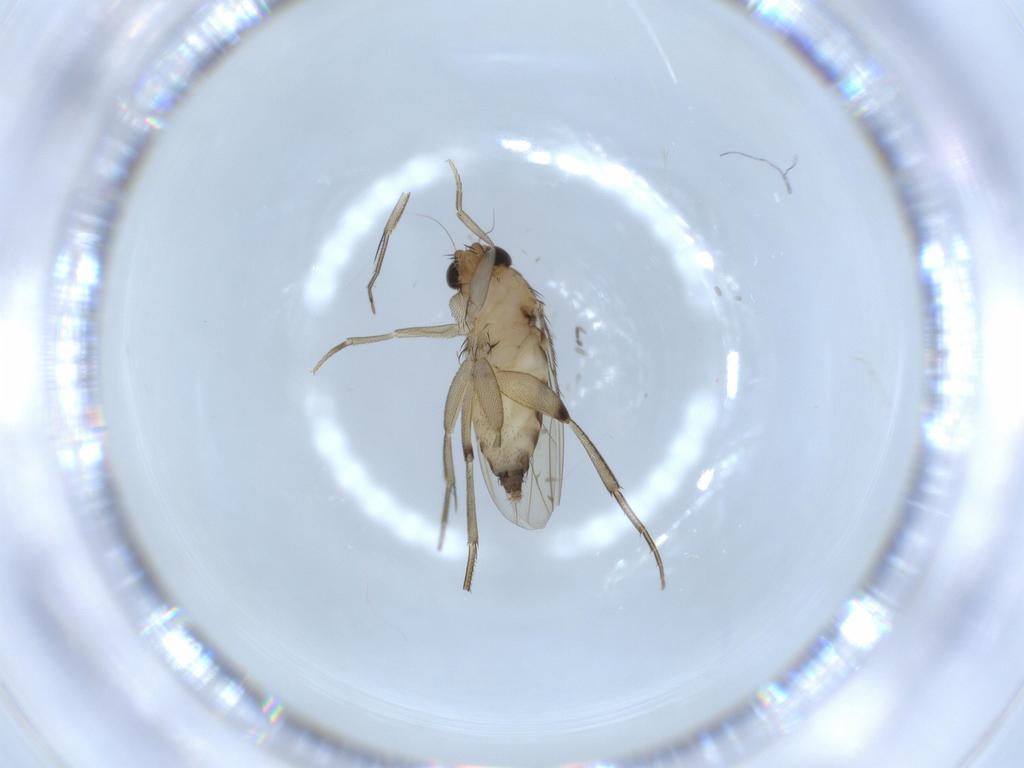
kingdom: Animalia
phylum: Arthropoda
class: Insecta
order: Diptera
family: Phoridae
